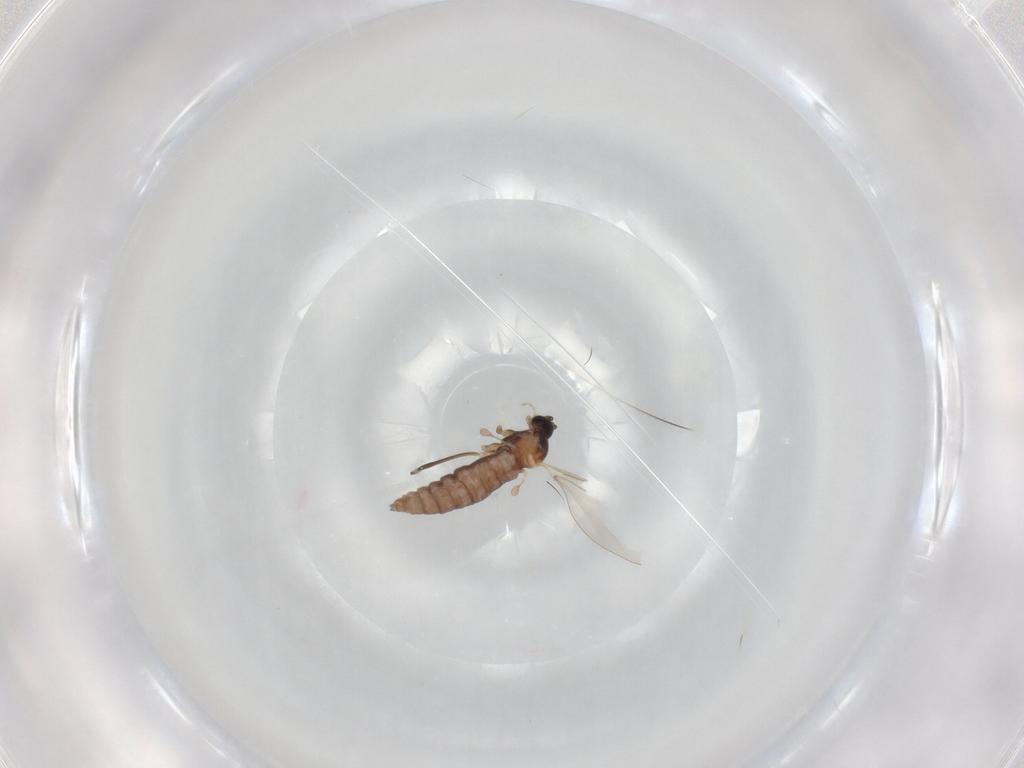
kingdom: Animalia
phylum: Arthropoda
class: Insecta
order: Diptera
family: Cecidomyiidae
